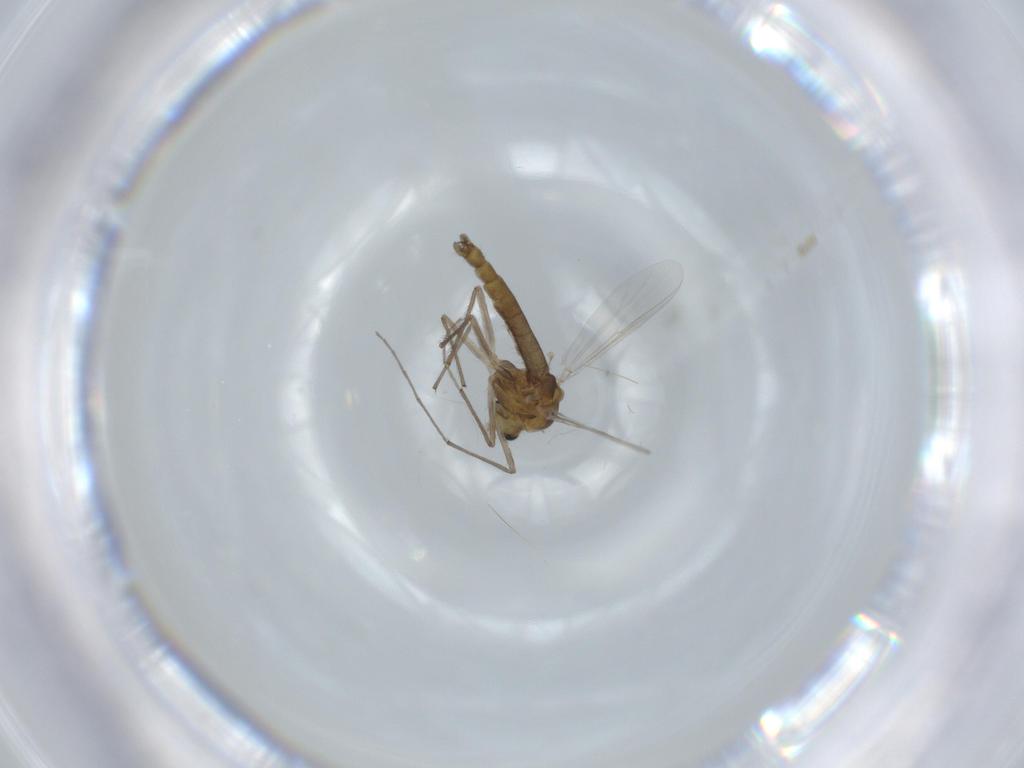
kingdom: Animalia
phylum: Arthropoda
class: Insecta
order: Diptera
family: Chironomidae
